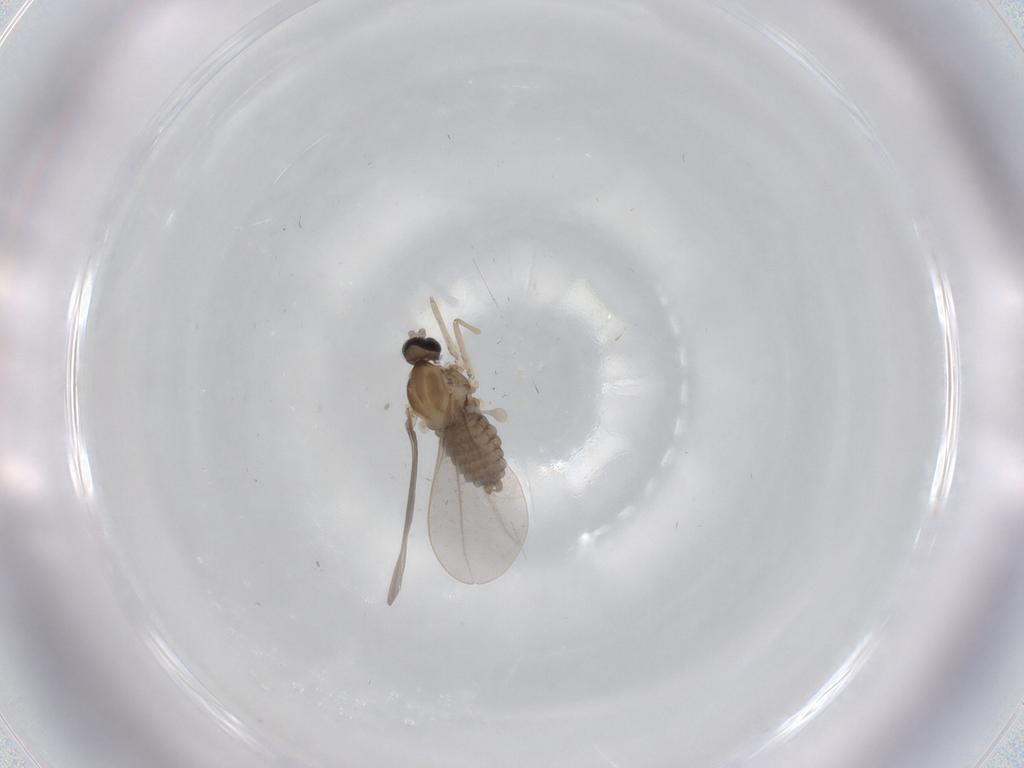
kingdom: Animalia
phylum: Arthropoda
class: Insecta
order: Diptera
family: Cecidomyiidae
